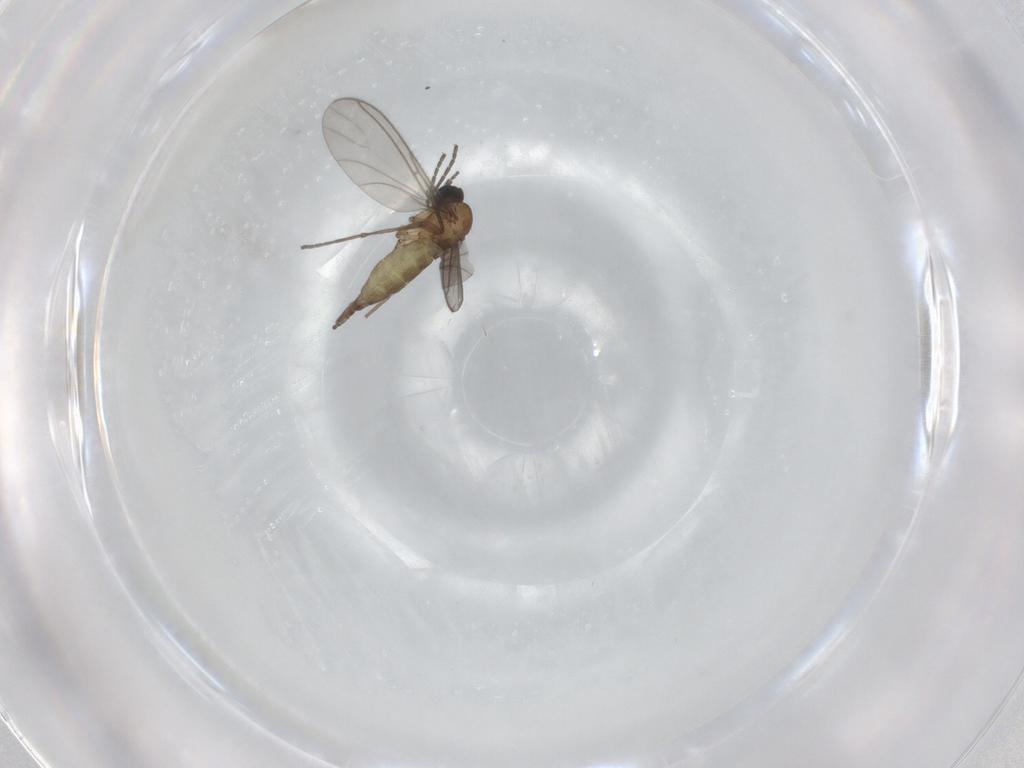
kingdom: Animalia
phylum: Arthropoda
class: Insecta
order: Diptera
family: Sciaridae
